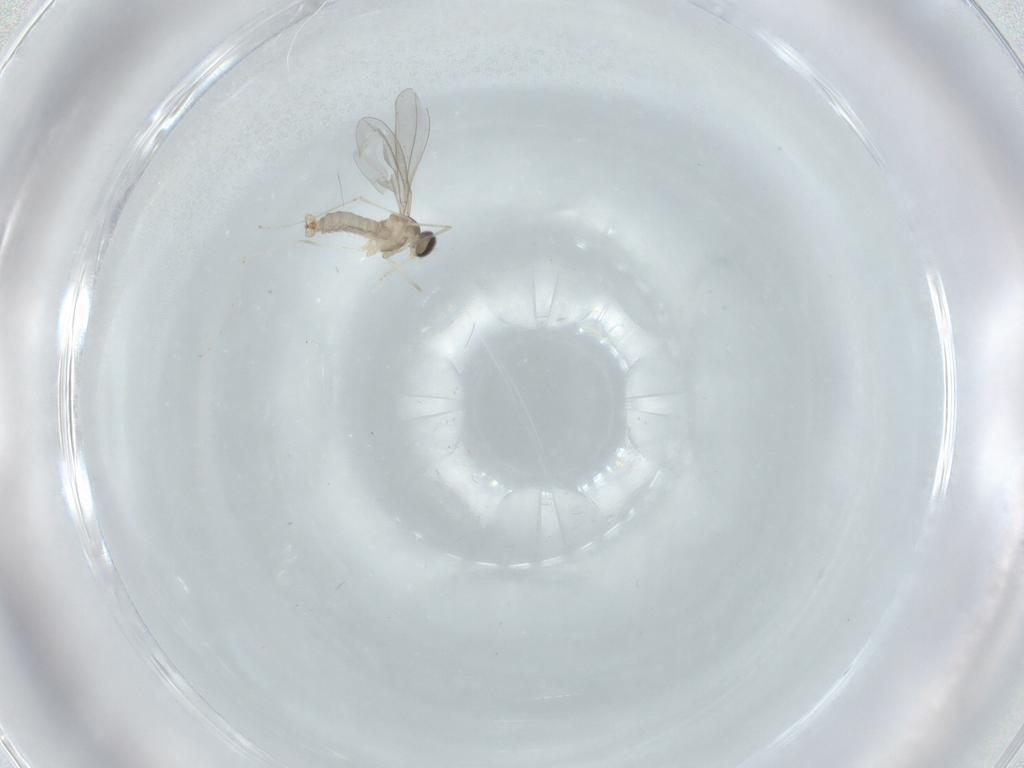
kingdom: Animalia
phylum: Arthropoda
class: Insecta
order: Diptera
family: Cecidomyiidae
